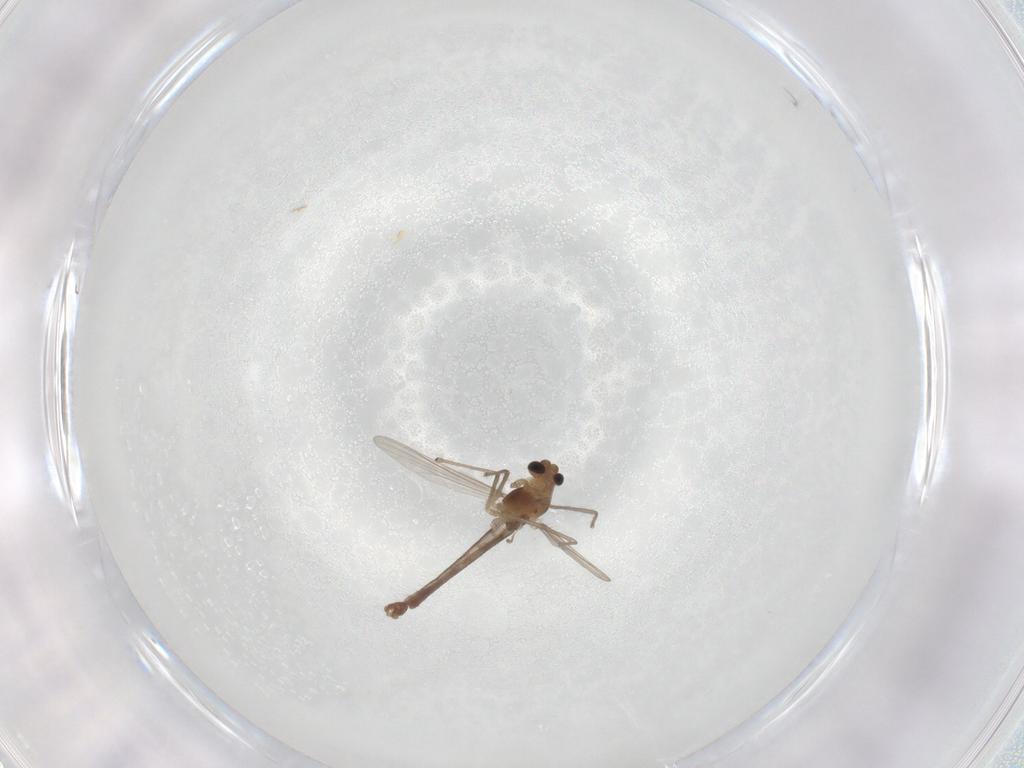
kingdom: Animalia
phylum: Arthropoda
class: Insecta
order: Diptera
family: Chironomidae
